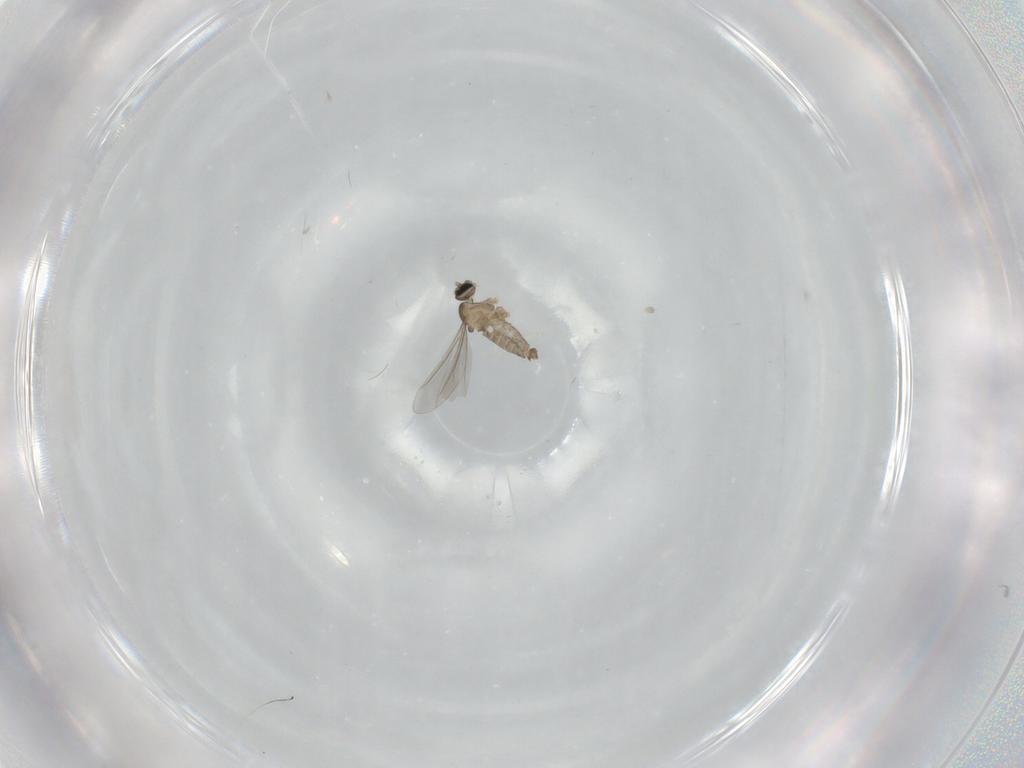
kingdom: Animalia
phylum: Arthropoda
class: Insecta
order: Diptera
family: Cecidomyiidae
